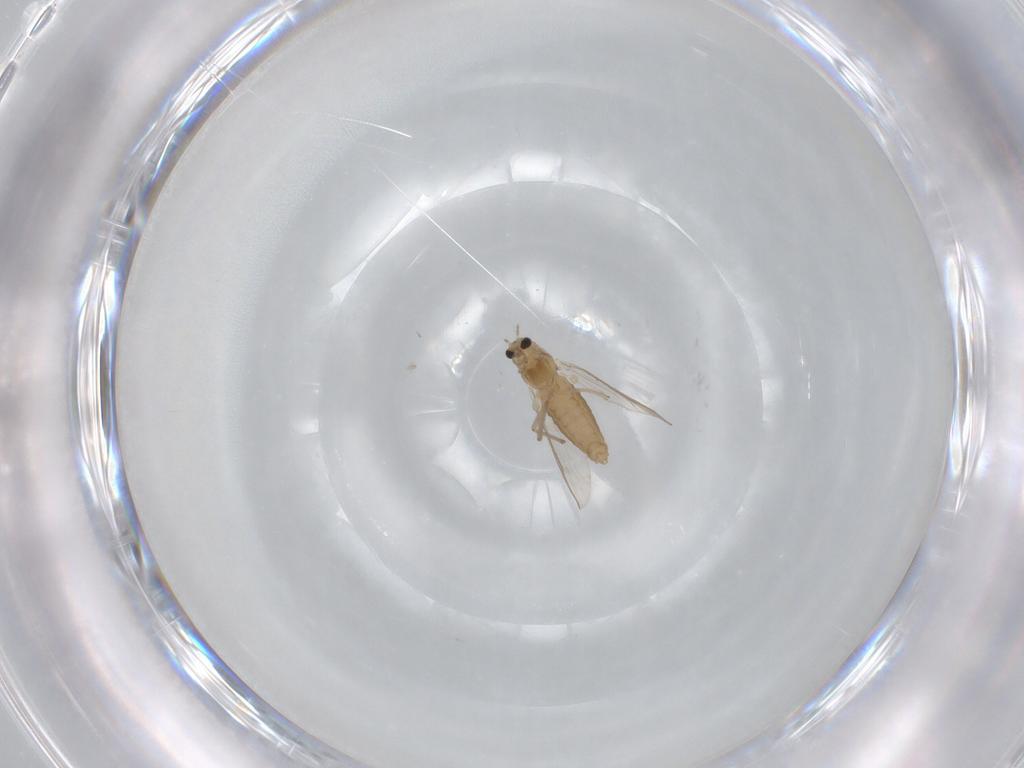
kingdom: Animalia
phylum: Arthropoda
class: Insecta
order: Diptera
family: Chironomidae
